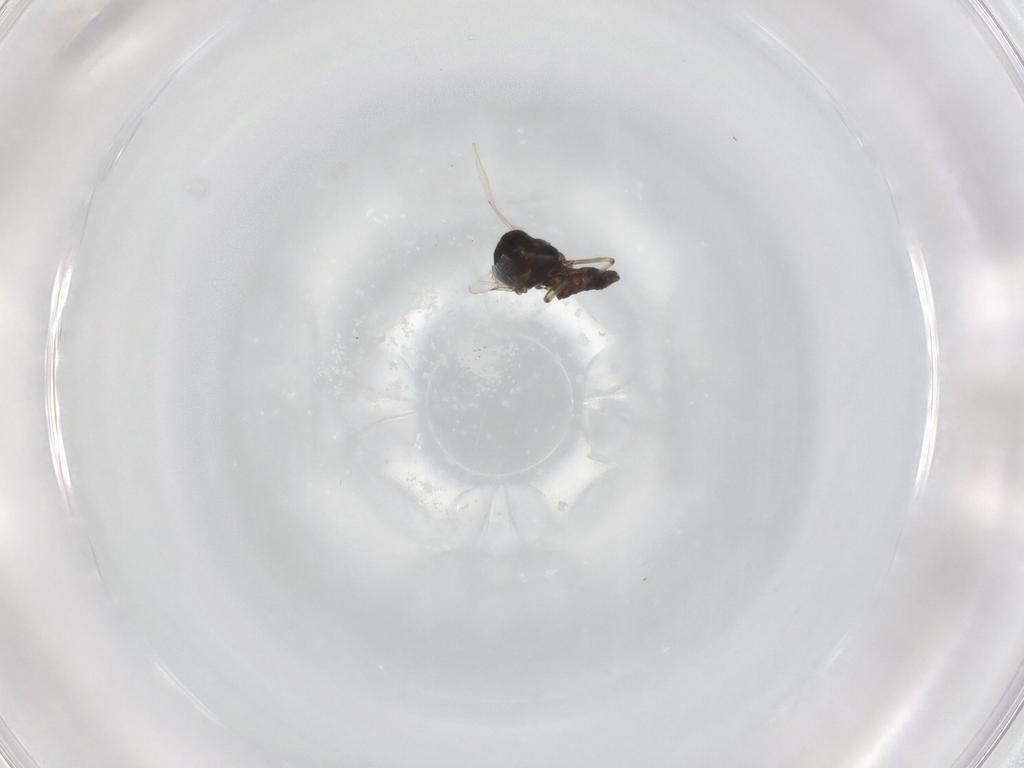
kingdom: Animalia
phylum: Arthropoda
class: Insecta
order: Diptera
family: Ceratopogonidae
